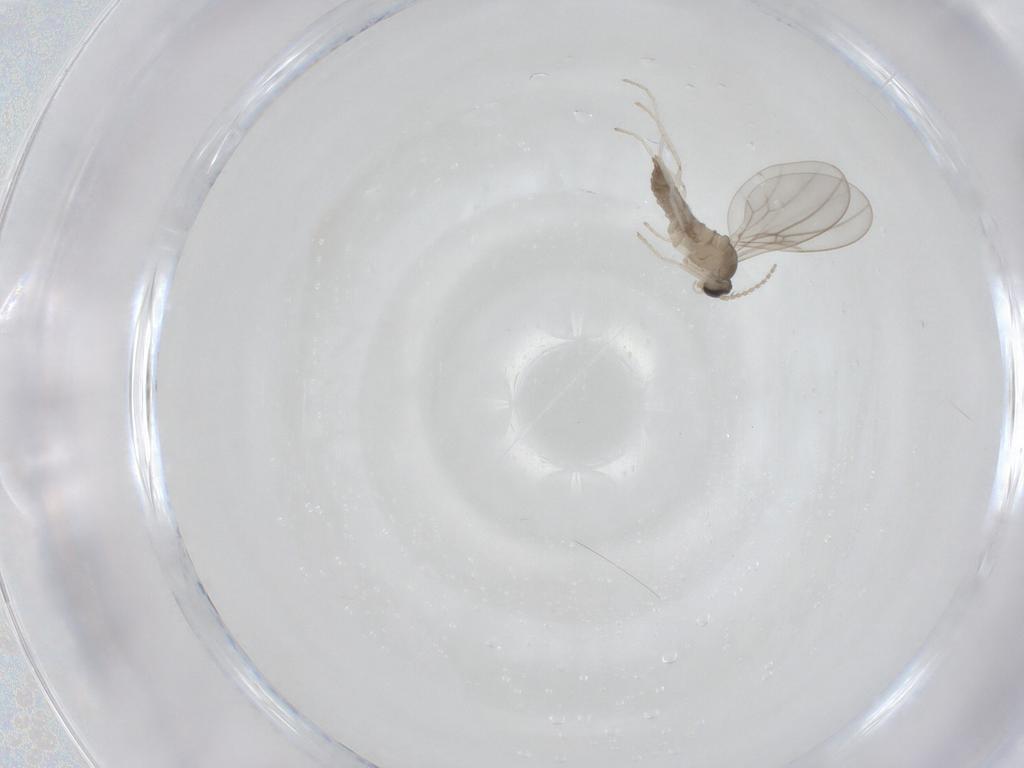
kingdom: Animalia
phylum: Arthropoda
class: Insecta
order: Diptera
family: Cecidomyiidae
